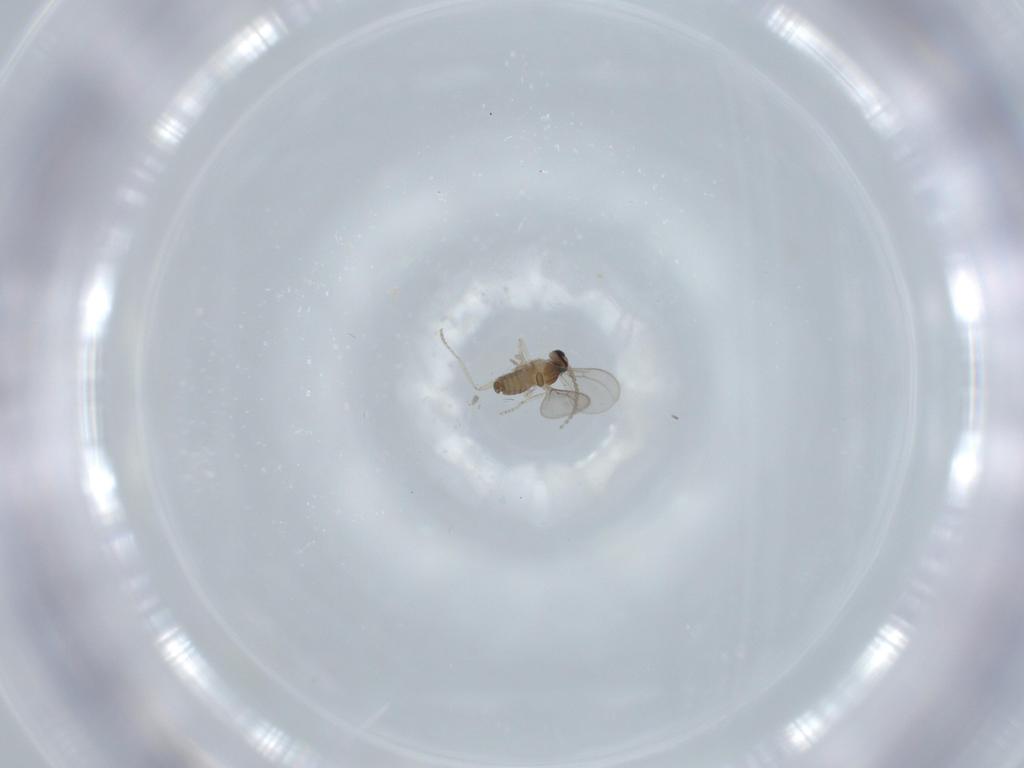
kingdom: Animalia
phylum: Arthropoda
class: Insecta
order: Diptera
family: Cecidomyiidae
